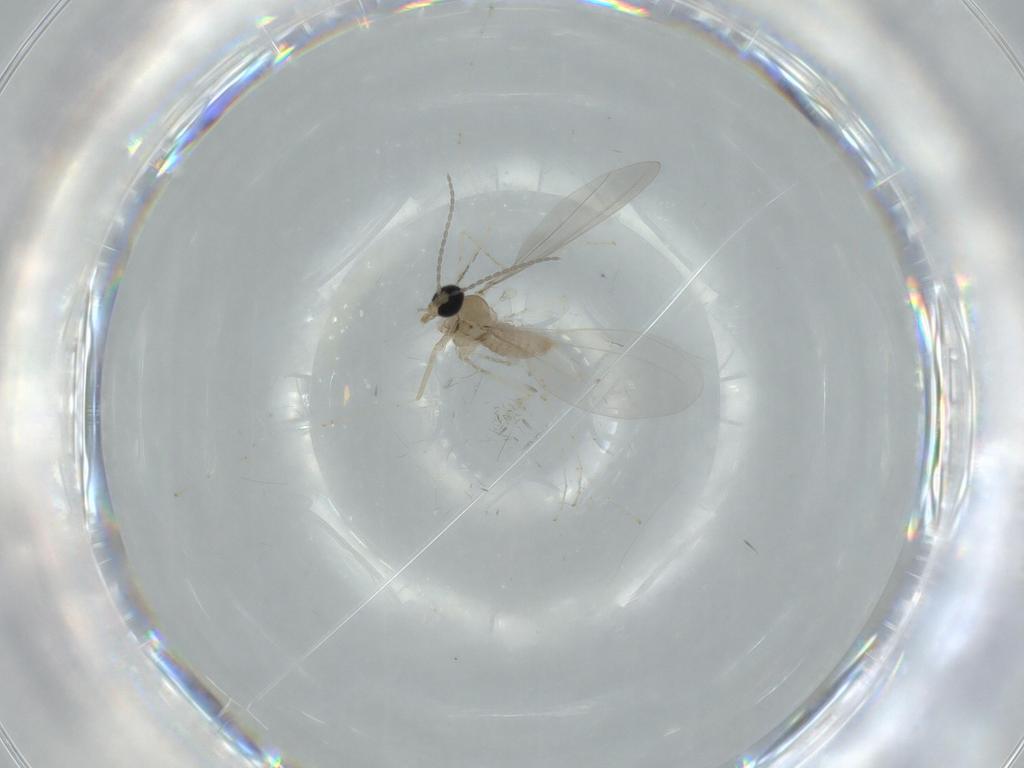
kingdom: Animalia
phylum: Arthropoda
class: Insecta
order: Diptera
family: Cecidomyiidae
